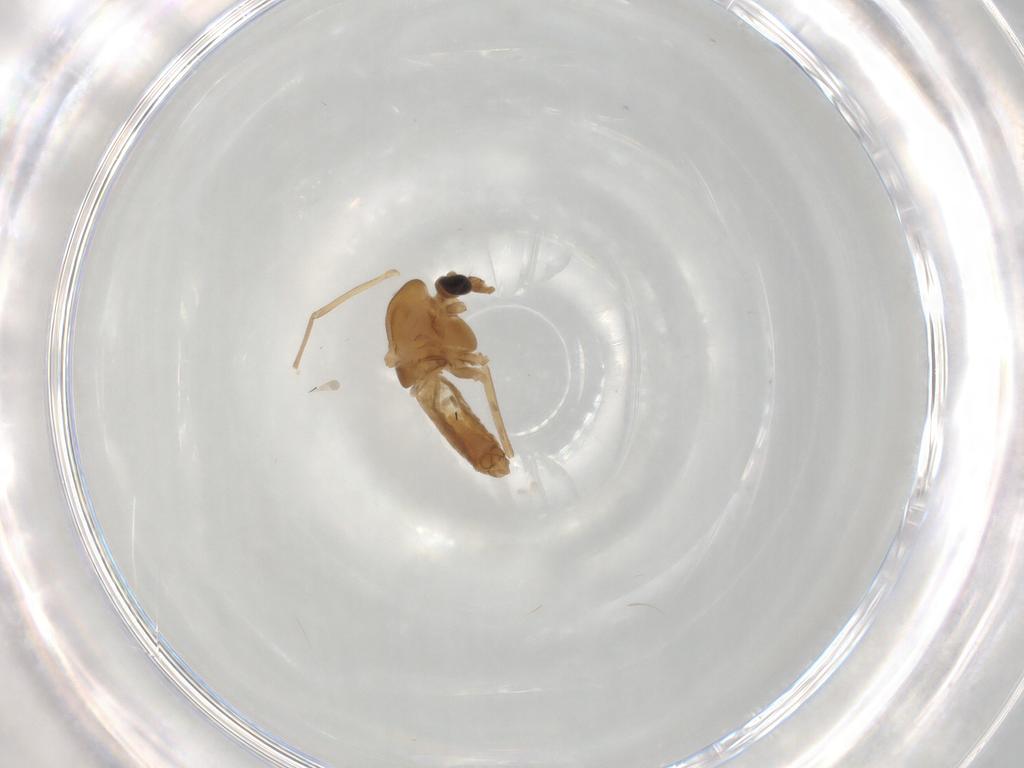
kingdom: Animalia
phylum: Arthropoda
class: Insecta
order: Diptera
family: Chironomidae
